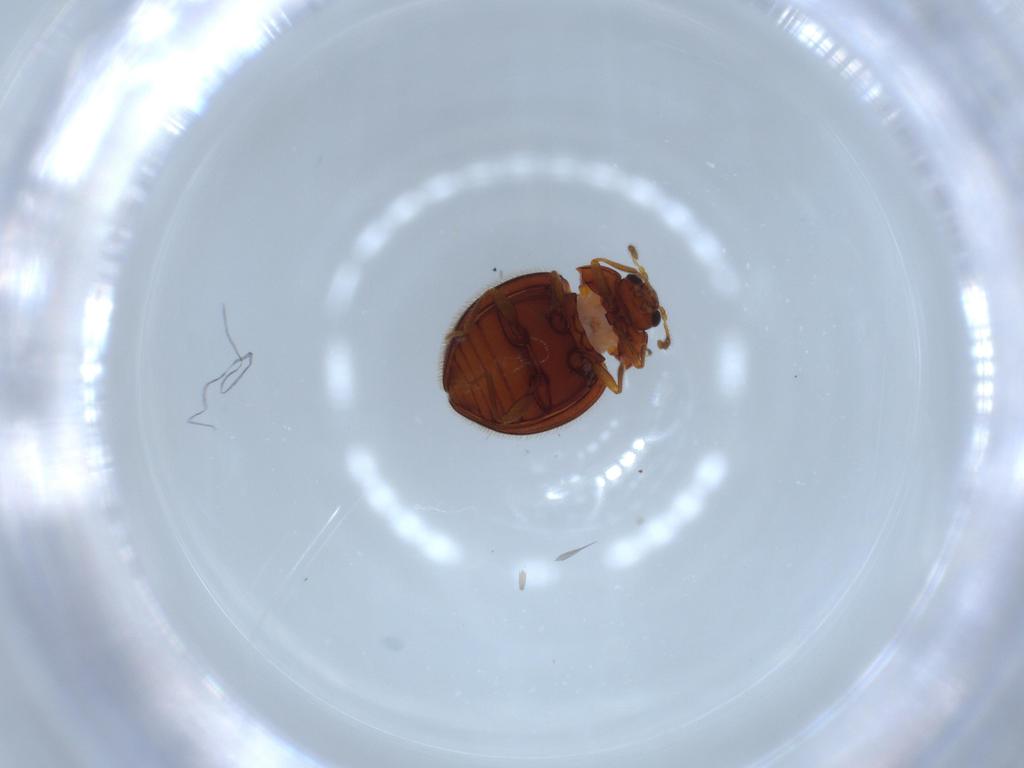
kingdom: Animalia
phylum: Arthropoda
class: Insecta
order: Coleoptera
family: Anamorphidae
